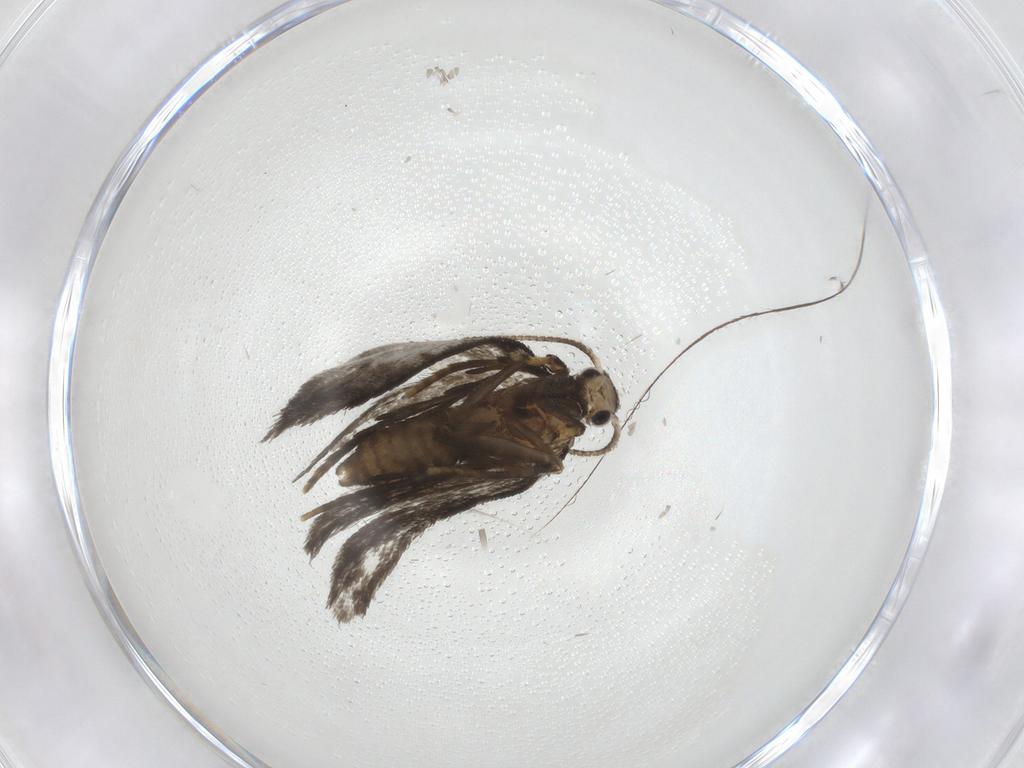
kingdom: Animalia
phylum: Arthropoda
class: Insecta
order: Lepidoptera
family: Psychidae
